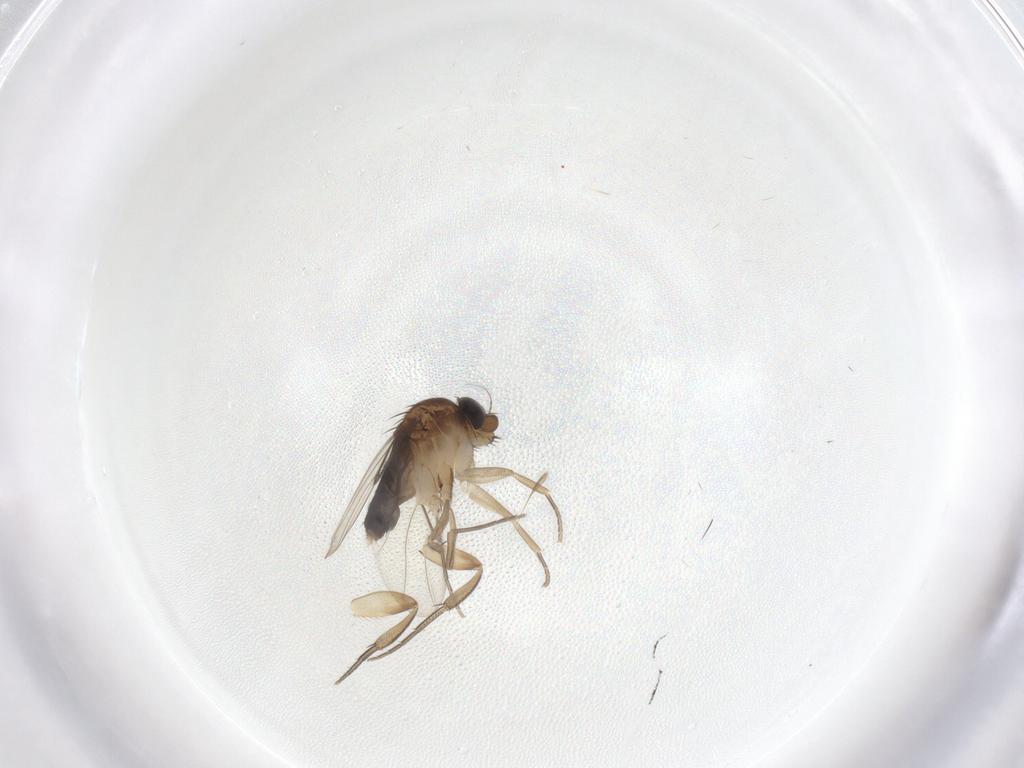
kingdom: Animalia
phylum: Arthropoda
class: Insecta
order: Diptera
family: Phoridae
